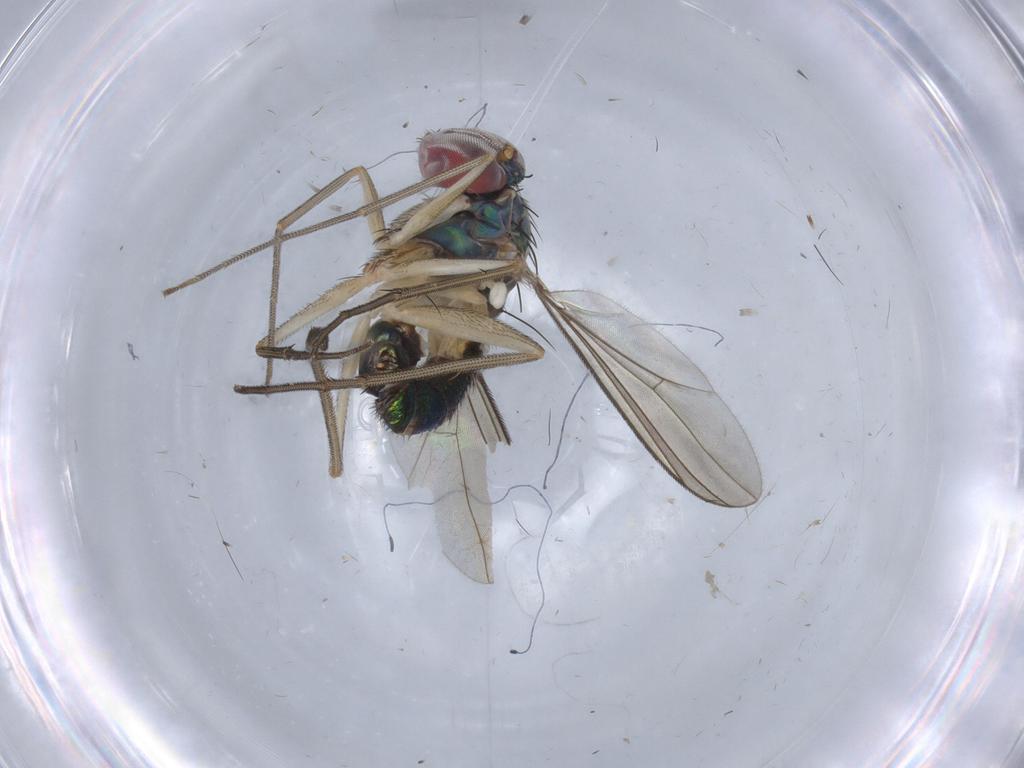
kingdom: Animalia
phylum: Arthropoda
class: Insecta
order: Diptera
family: Dolichopodidae
